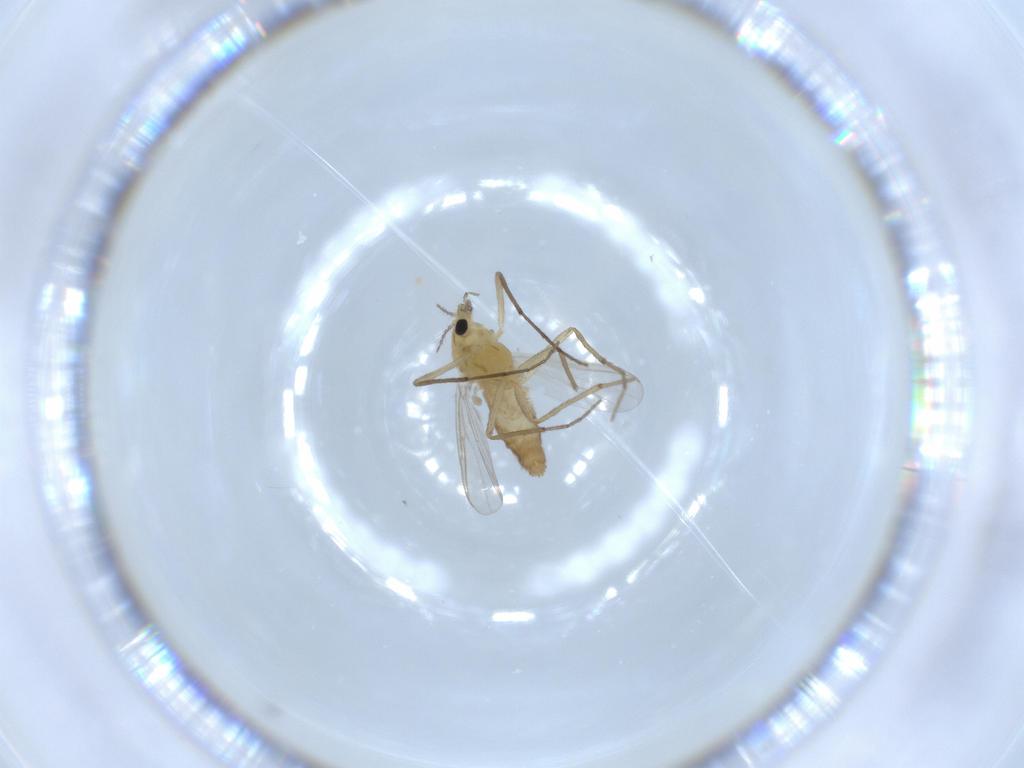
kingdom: Animalia
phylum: Arthropoda
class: Insecta
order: Diptera
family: Chironomidae
